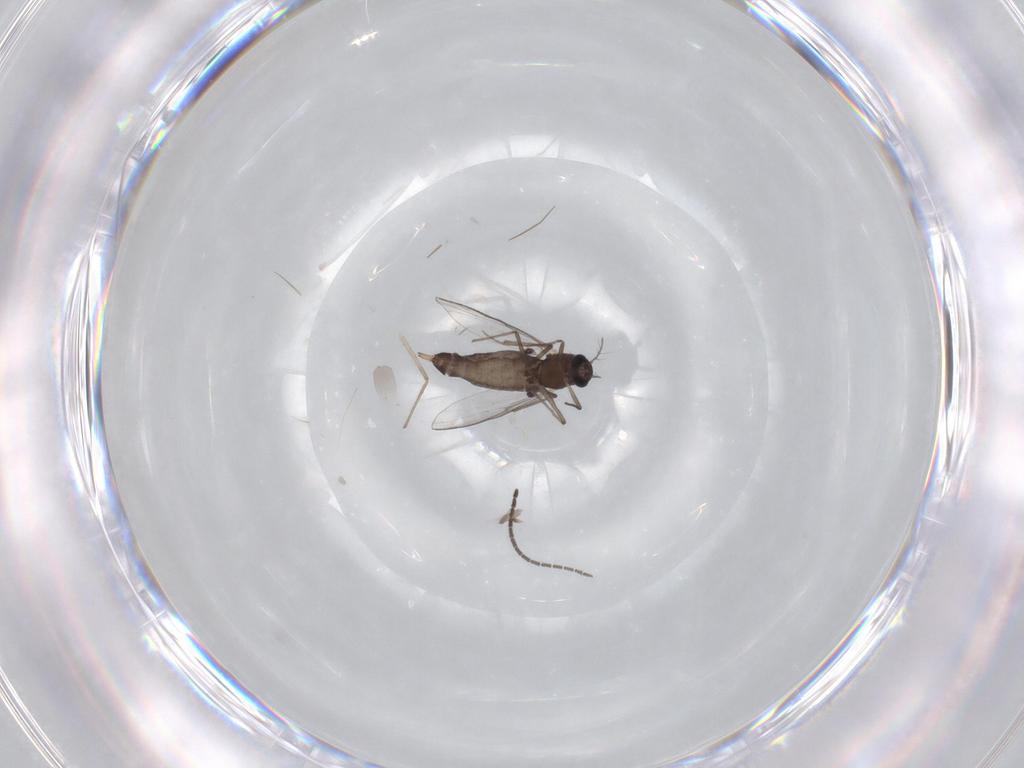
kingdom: Animalia
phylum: Arthropoda
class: Insecta
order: Diptera
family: Chironomidae
